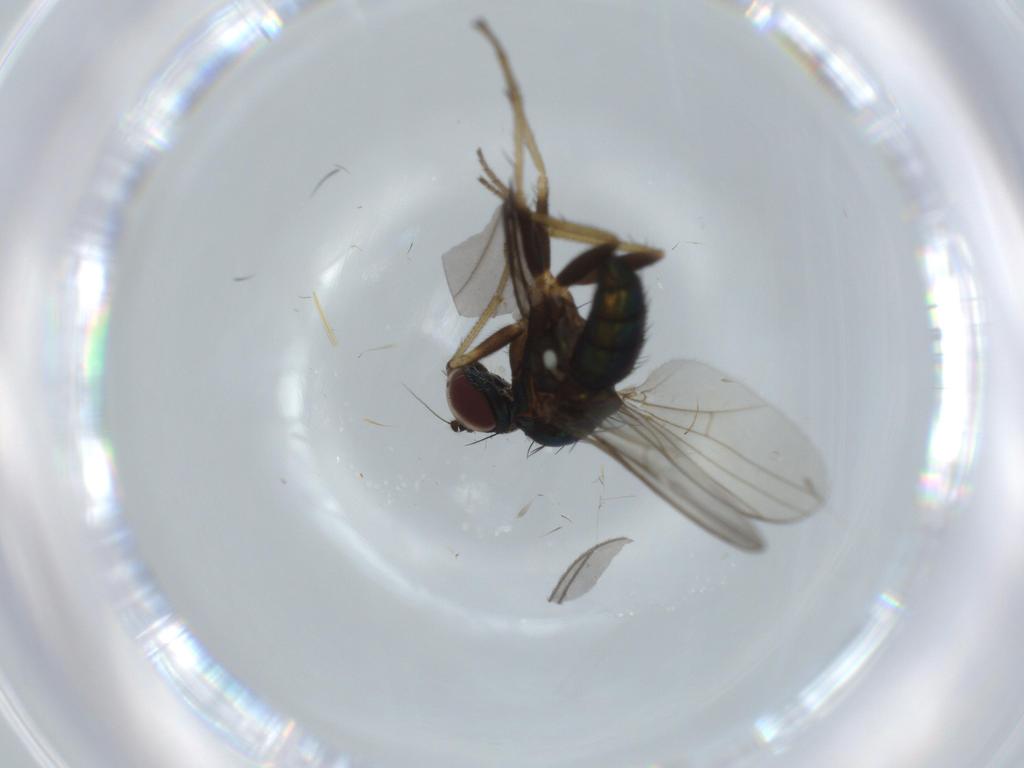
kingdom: Animalia
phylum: Arthropoda
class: Insecta
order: Diptera
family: Sciaridae
